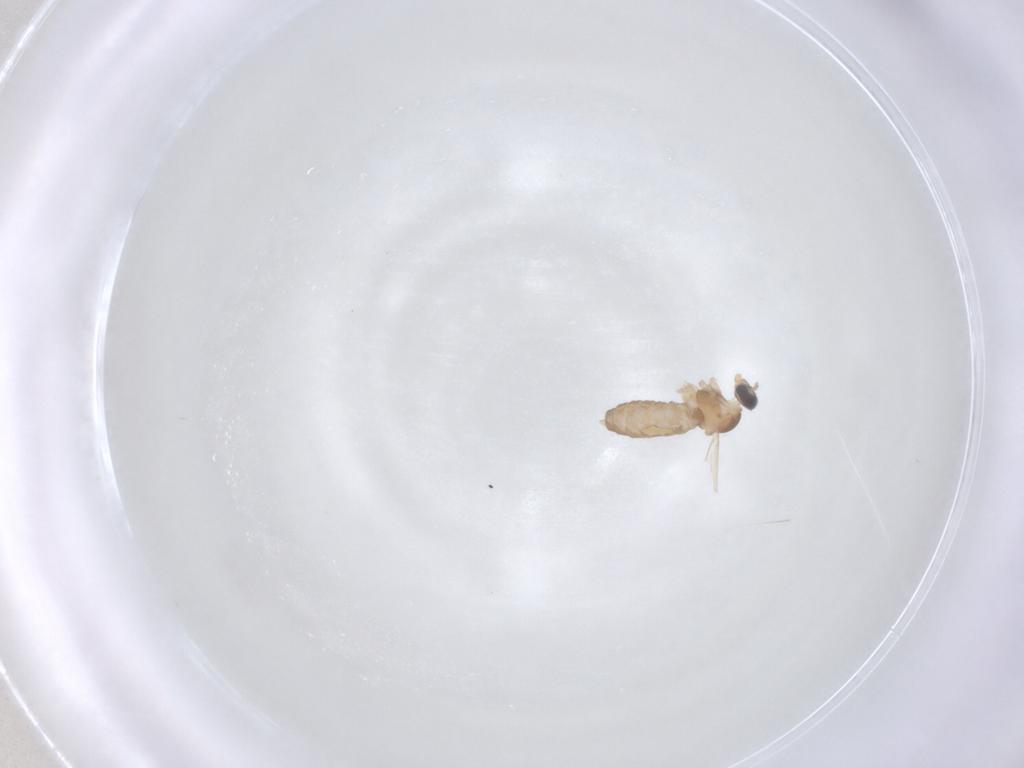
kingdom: Animalia
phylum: Arthropoda
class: Insecta
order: Diptera
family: Cecidomyiidae
